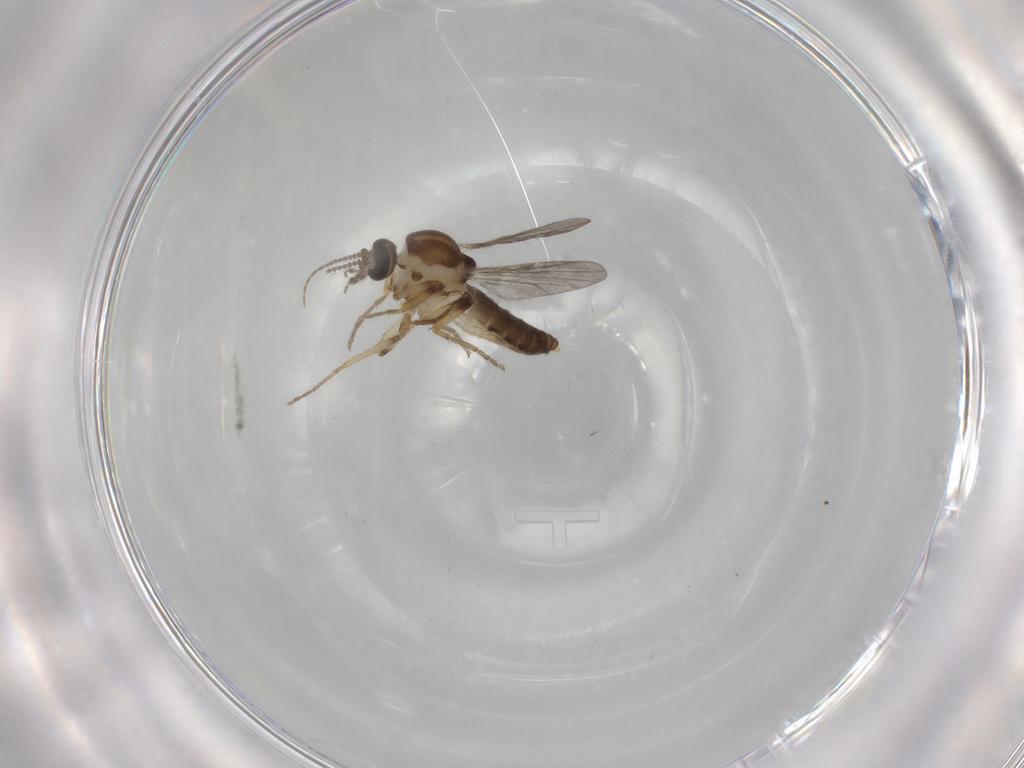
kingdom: Animalia
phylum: Arthropoda
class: Insecta
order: Diptera
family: Ceratopogonidae
